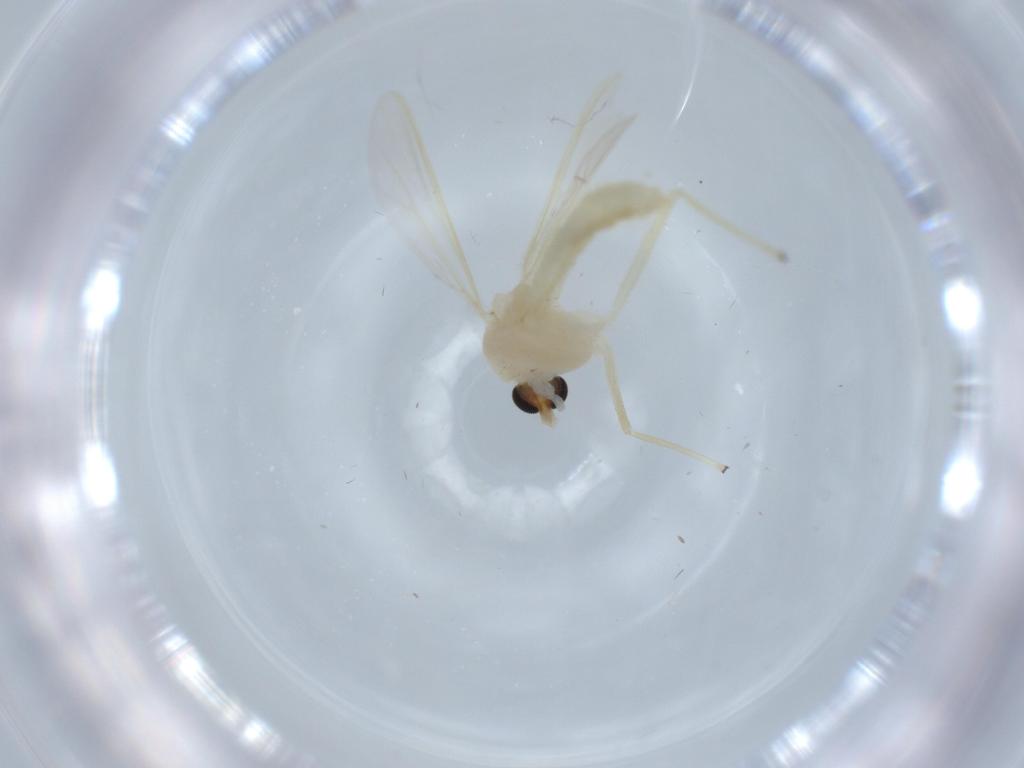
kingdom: Animalia
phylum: Arthropoda
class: Insecta
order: Diptera
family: Chironomidae
